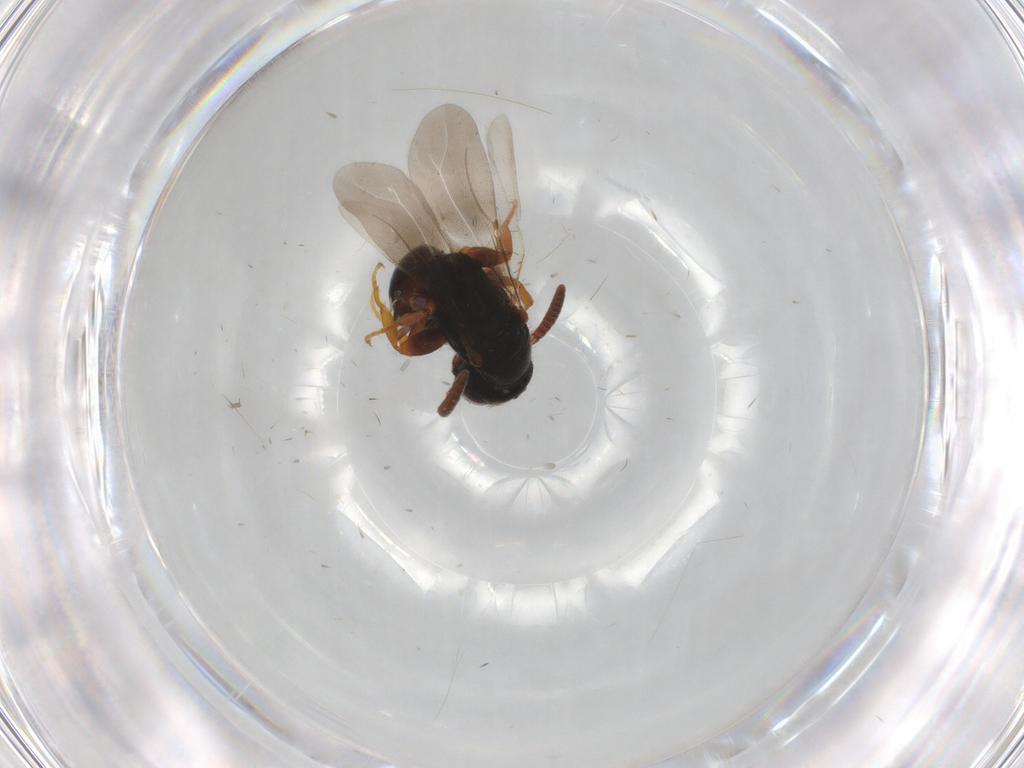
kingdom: Animalia
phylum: Arthropoda
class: Insecta
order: Hymenoptera
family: Bethylidae
